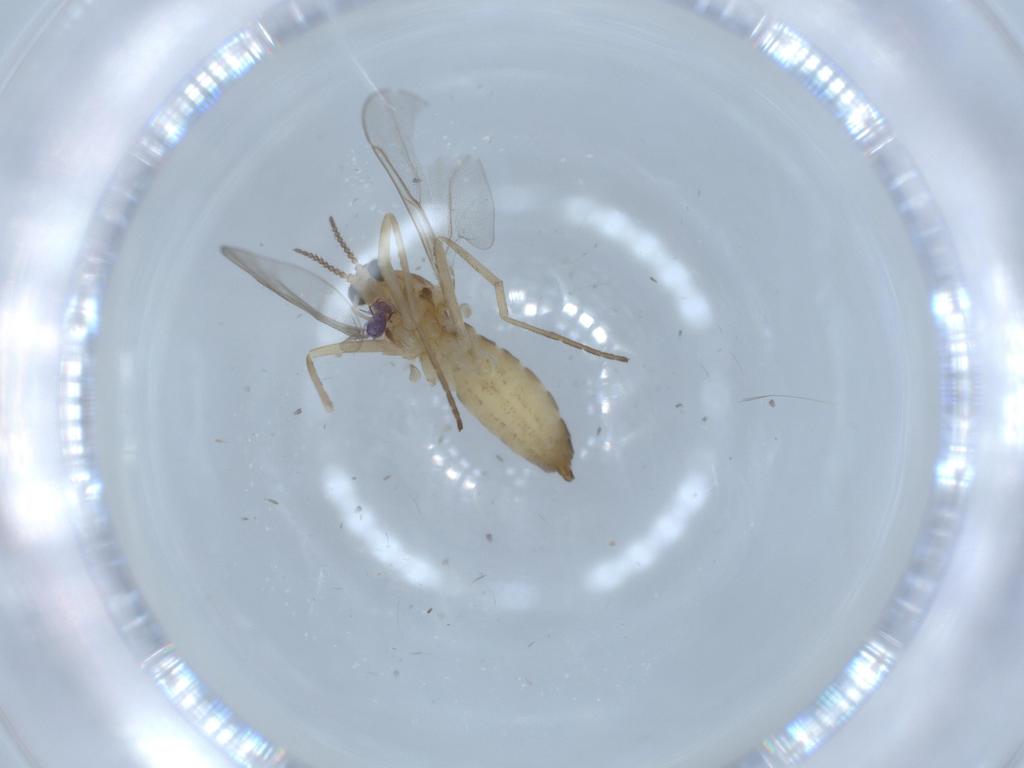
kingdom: Animalia
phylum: Arthropoda
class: Insecta
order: Diptera
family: Cecidomyiidae
